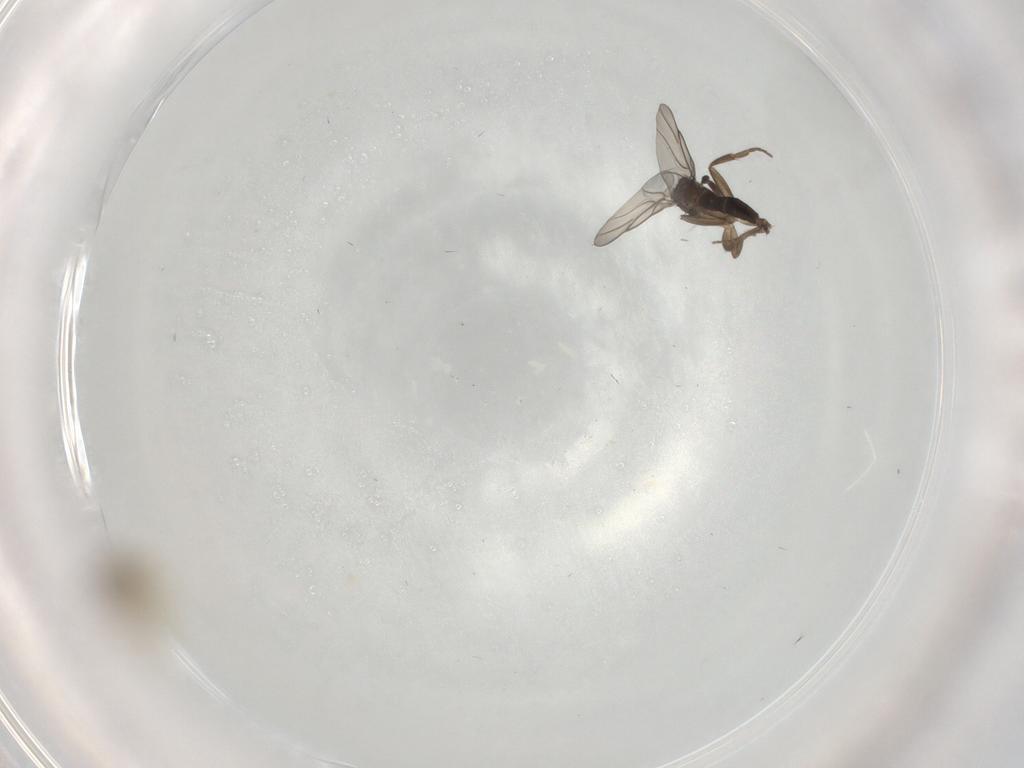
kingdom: Animalia
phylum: Arthropoda
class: Insecta
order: Diptera
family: Cecidomyiidae
